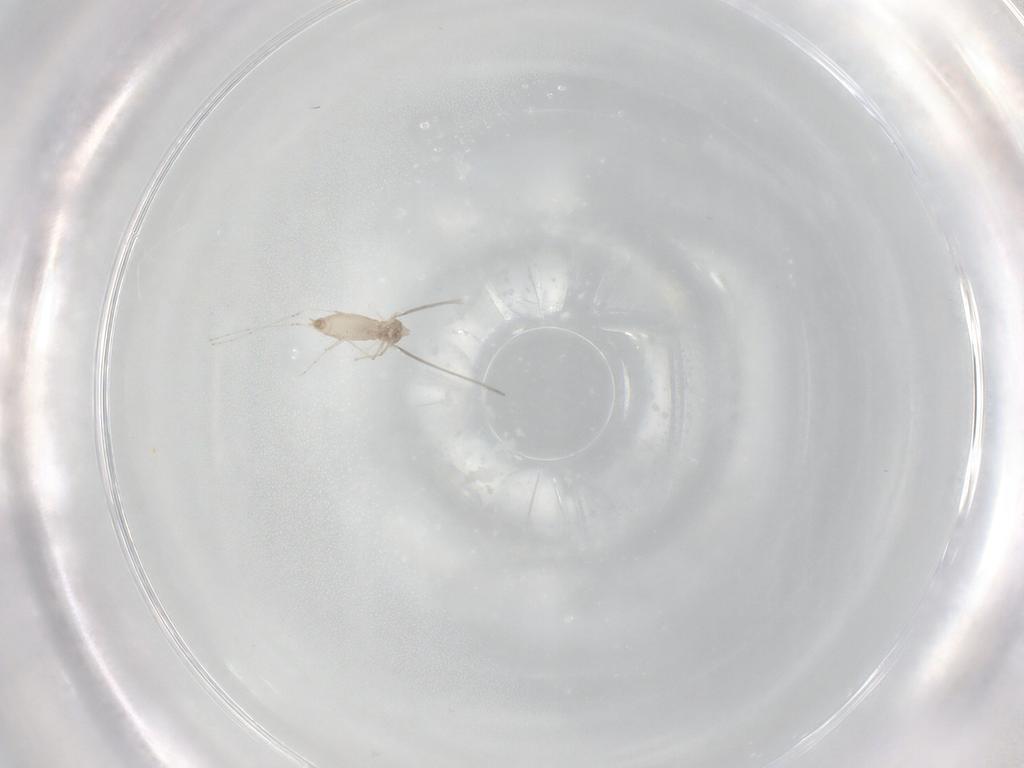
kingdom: Animalia
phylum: Arthropoda
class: Insecta
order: Diptera
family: Cecidomyiidae
